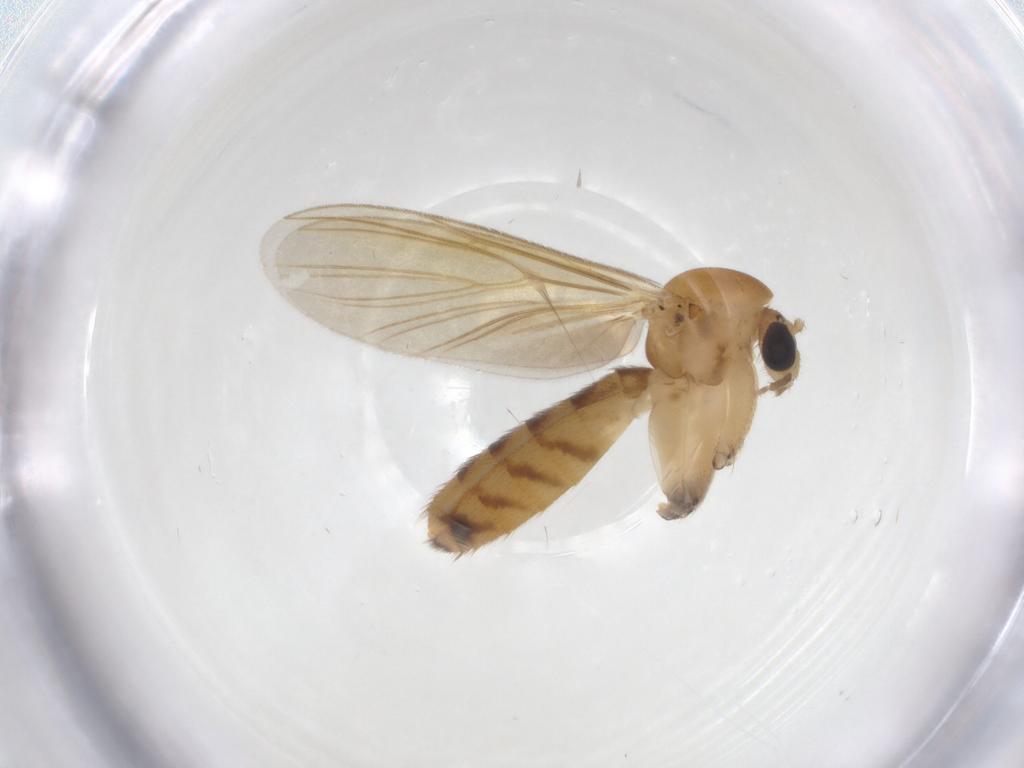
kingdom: Animalia
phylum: Arthropoda
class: Insecta
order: Diptera
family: Mycetophilidae
